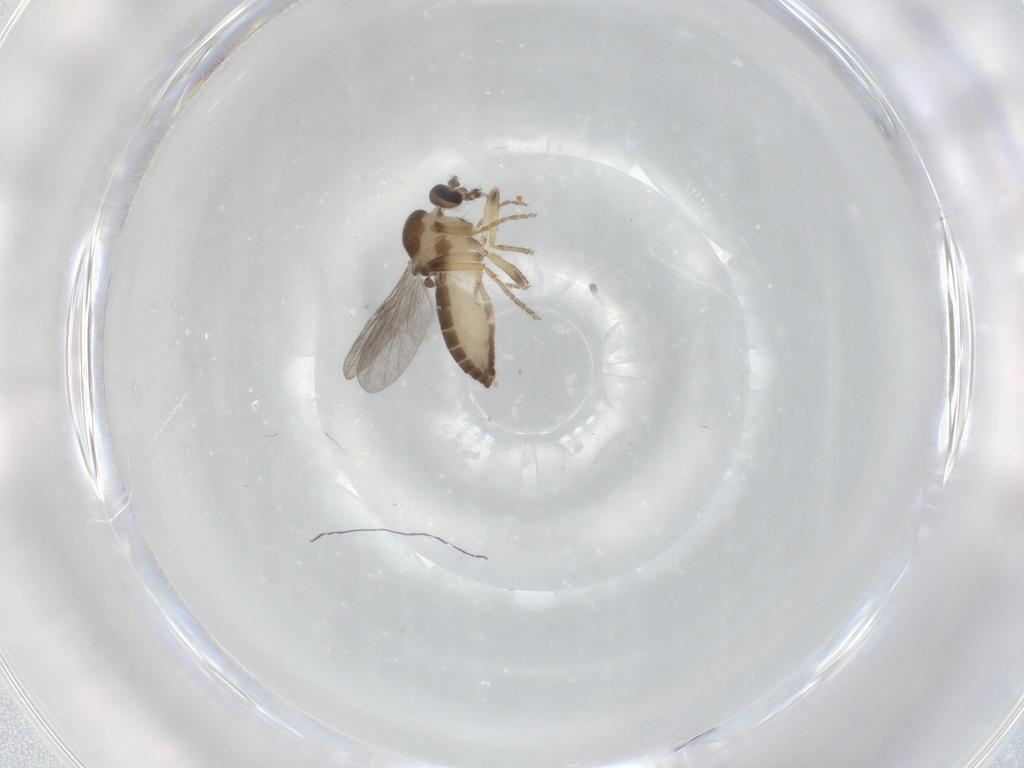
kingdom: Animalia
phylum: Arthropoda
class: Insecta
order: Diptera
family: Ceratopogonidae
